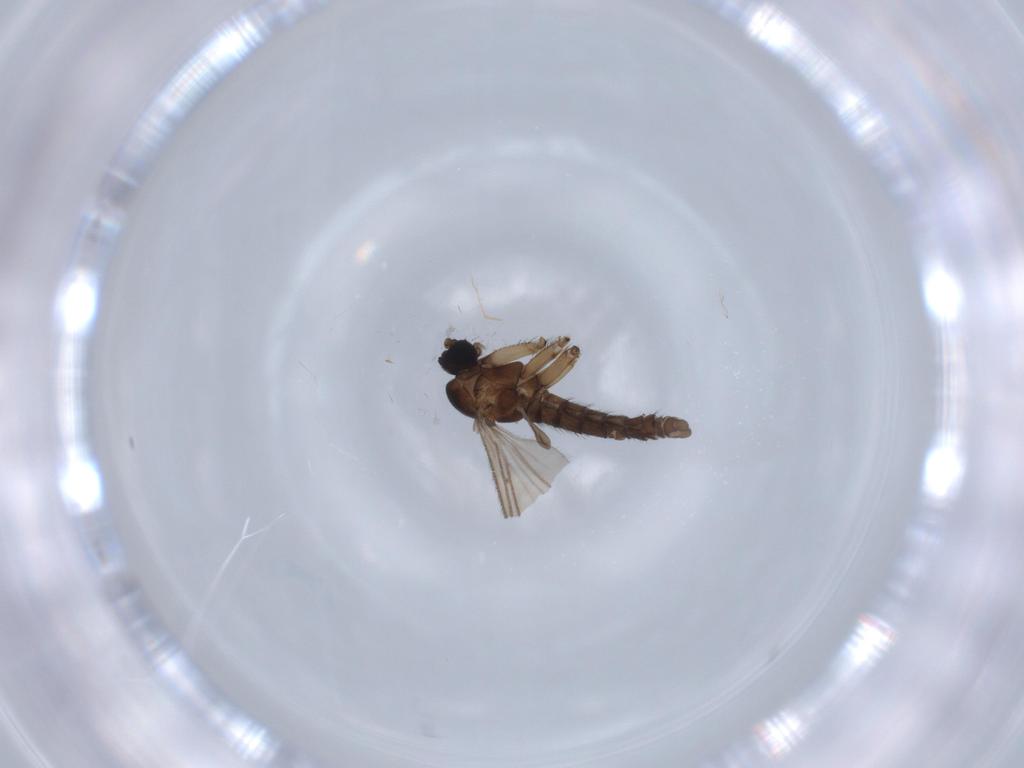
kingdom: Animalia
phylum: Arthropoda
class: Insecta
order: Diptera
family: Sciaridae
